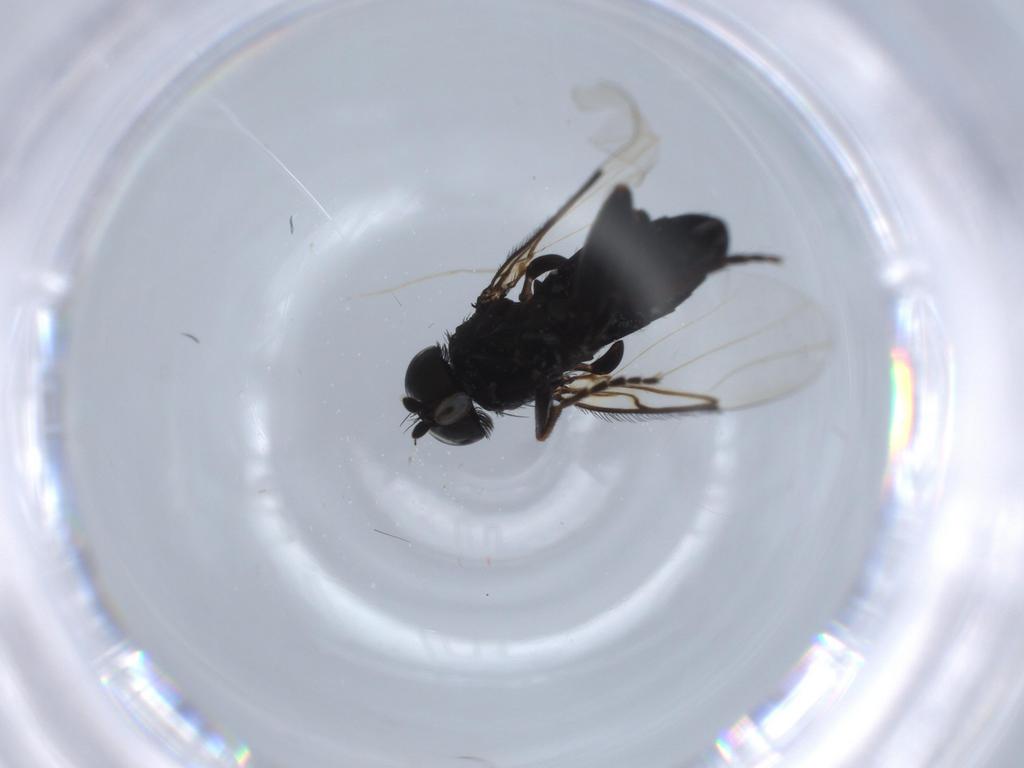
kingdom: Animalia
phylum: Arthropoda
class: Insecta
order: Diptera
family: Phoridae
